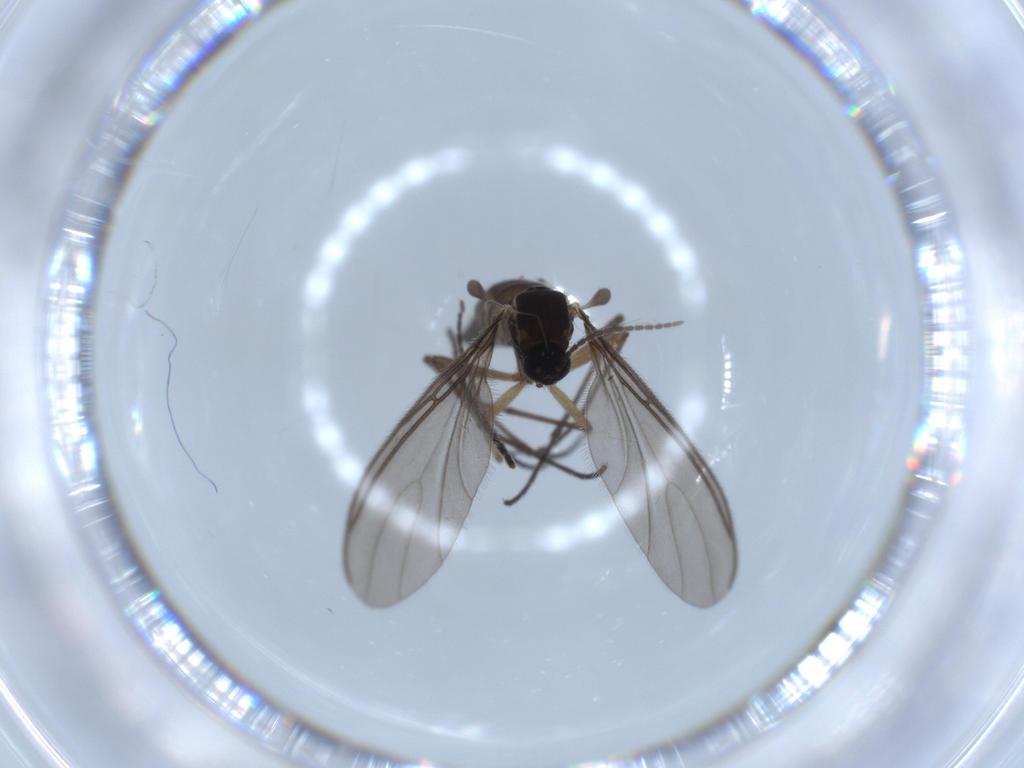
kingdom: Animalia
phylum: Arthropoda
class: Insecta
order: Diptera
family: Sciaridae
